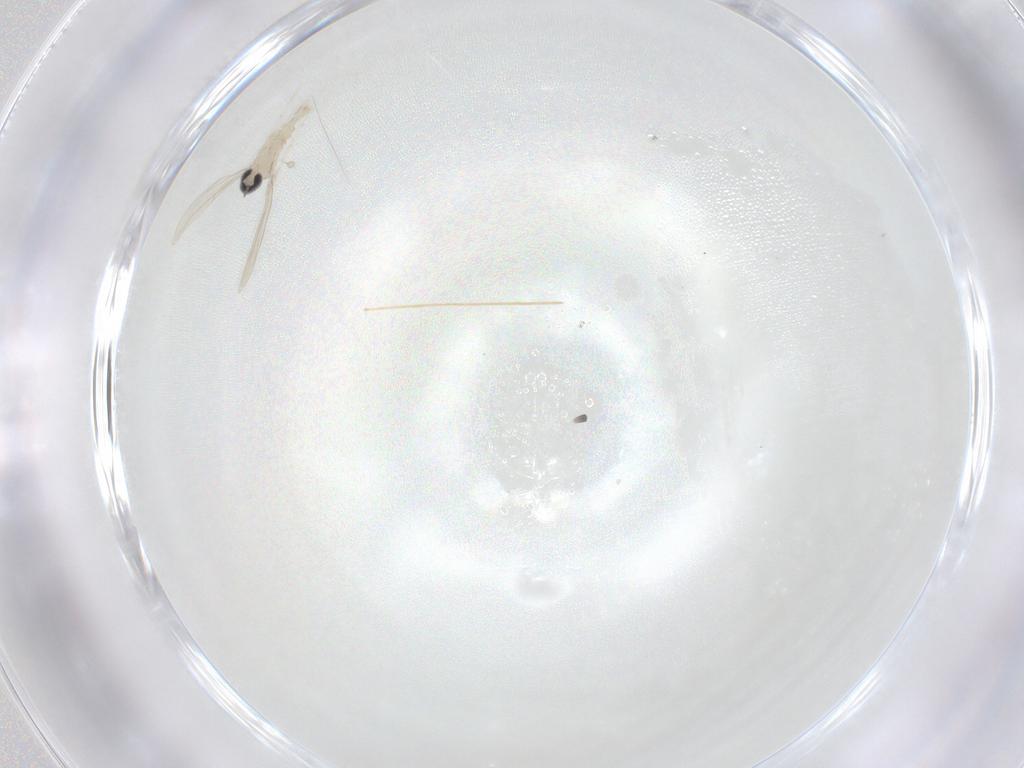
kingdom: Animalia
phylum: Arthropoda
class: Insecta
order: Diptera
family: Cecidomyiidae
